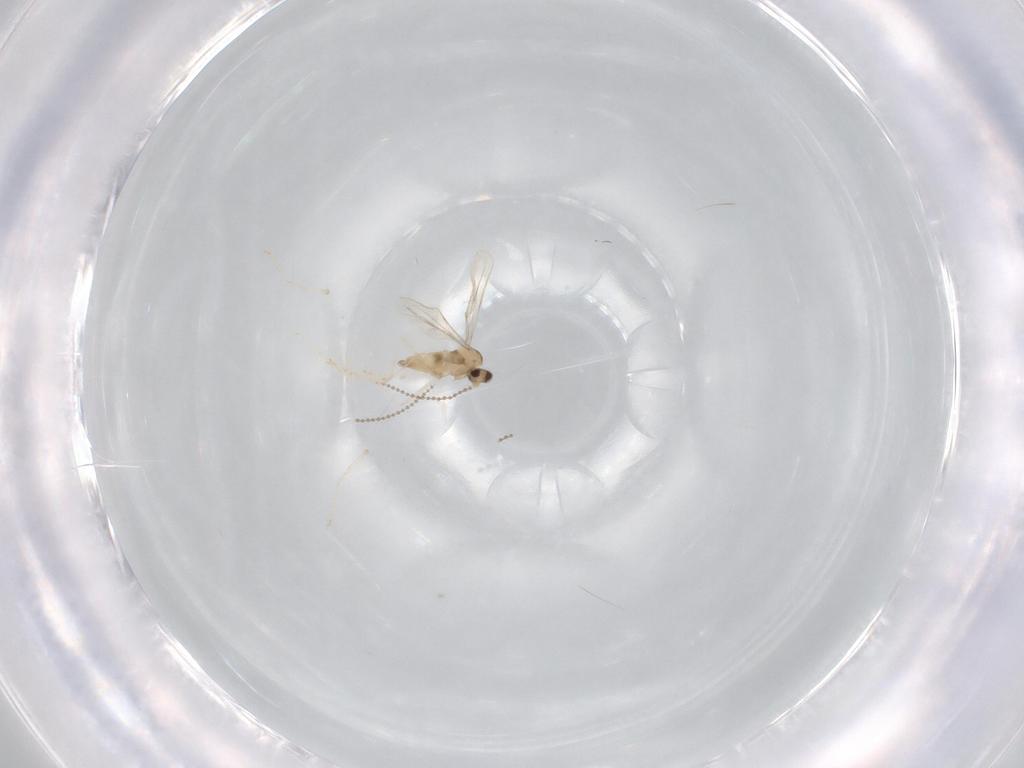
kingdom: Animalia
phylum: Arthropoda
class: Insecta
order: Diptera
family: Cecidomyiidae
